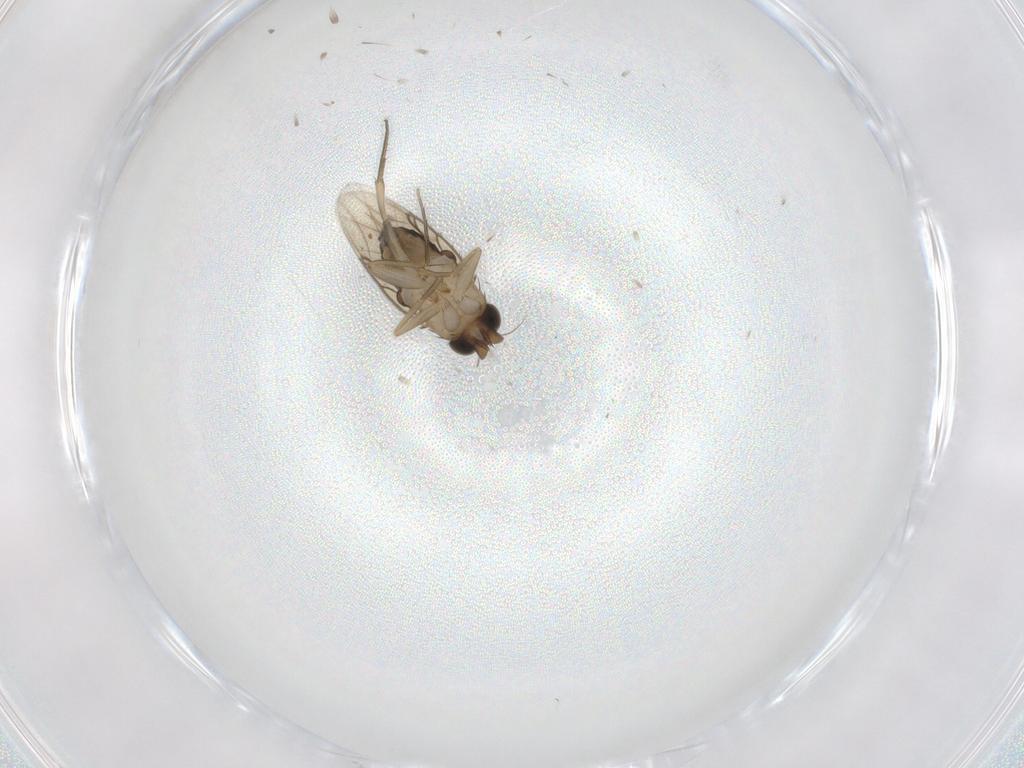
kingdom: Animalia
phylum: Arthropoda
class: Insecta
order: Diptera
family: Phoridae
